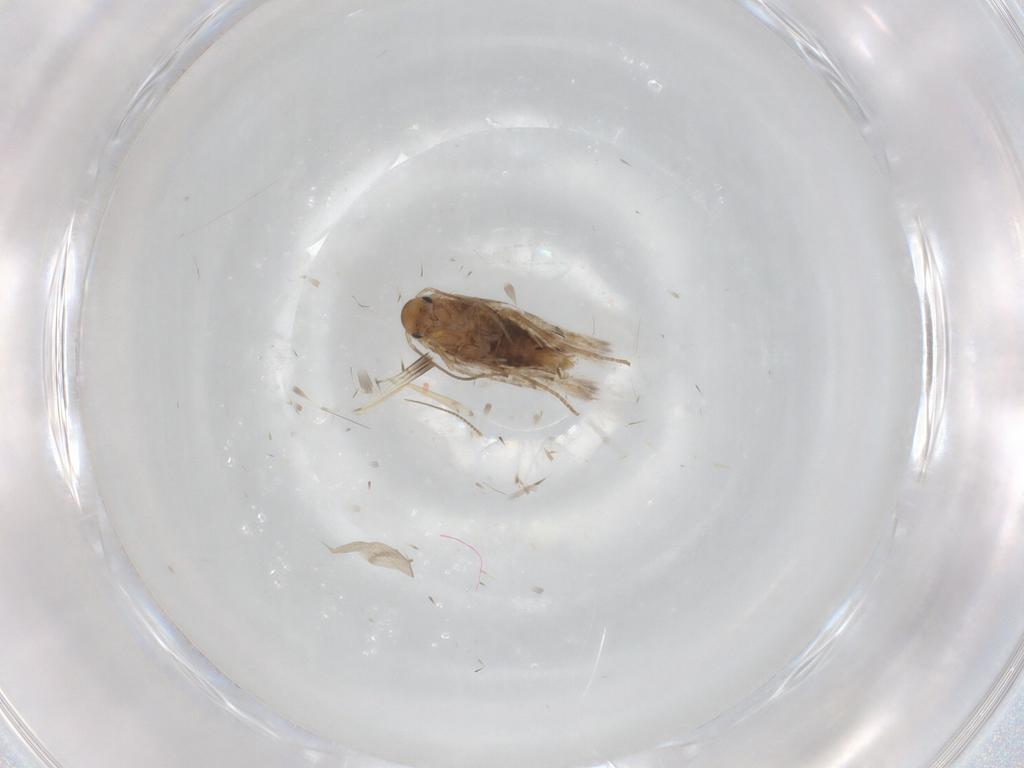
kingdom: Animalia
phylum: Arthropoda
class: Insecta
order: Lepidoptera
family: Lyonetiidae
